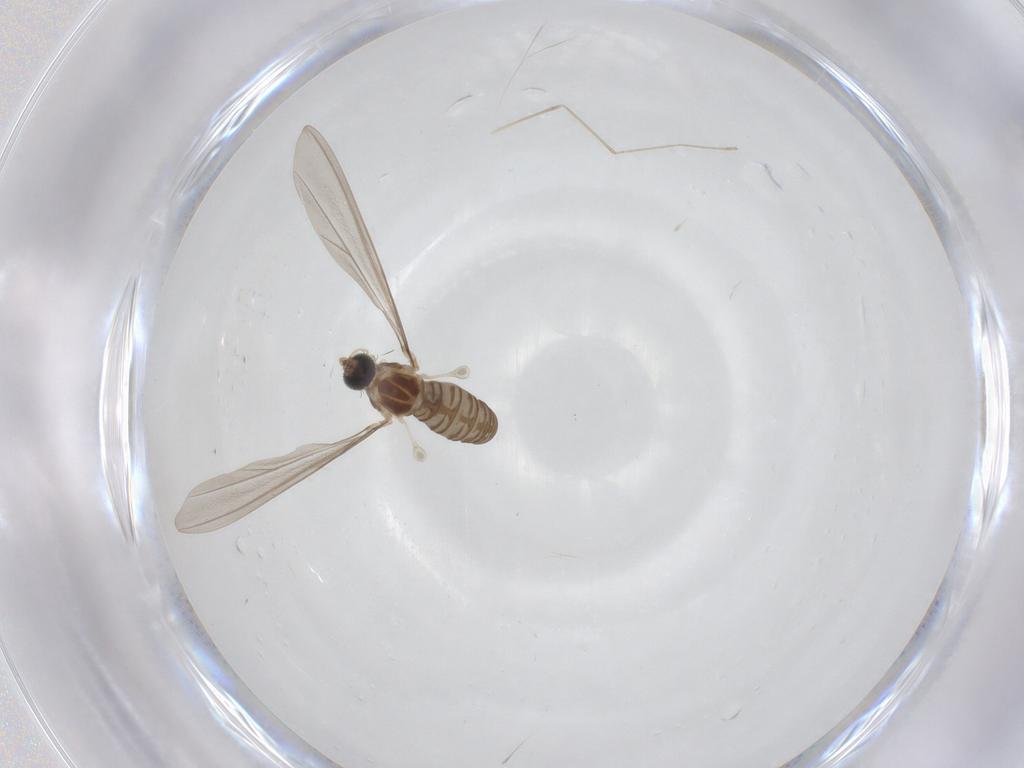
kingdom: Animalia
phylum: Arthropoda
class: Insecta
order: Diptera
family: Cecidomyiidae
